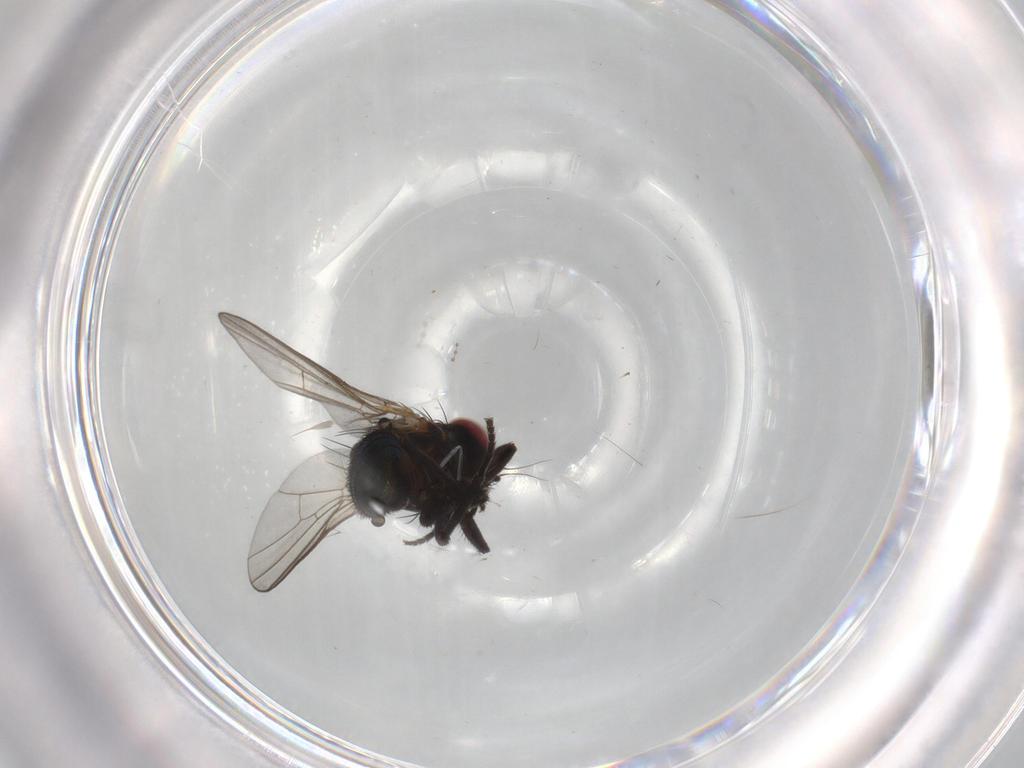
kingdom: Animalia
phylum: Arthropoda
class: Insecta
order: Diptera
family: Agromyzidae
